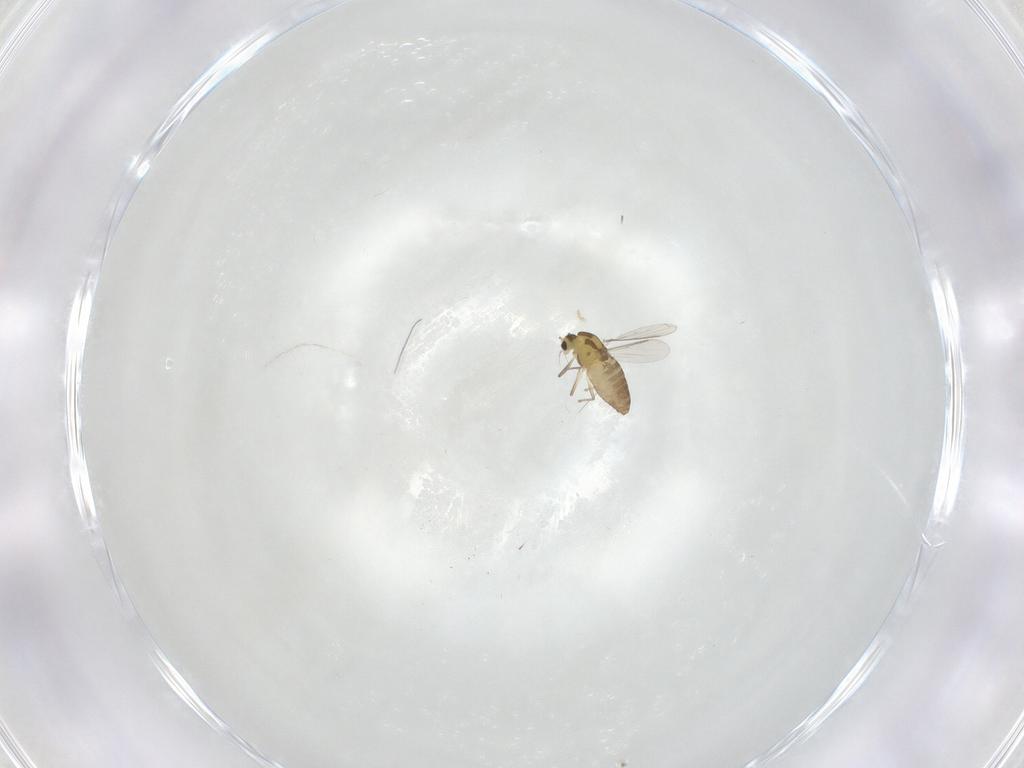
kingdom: Animalia
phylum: Arthropoda
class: Insecta
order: Diptera
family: Chironomidae
